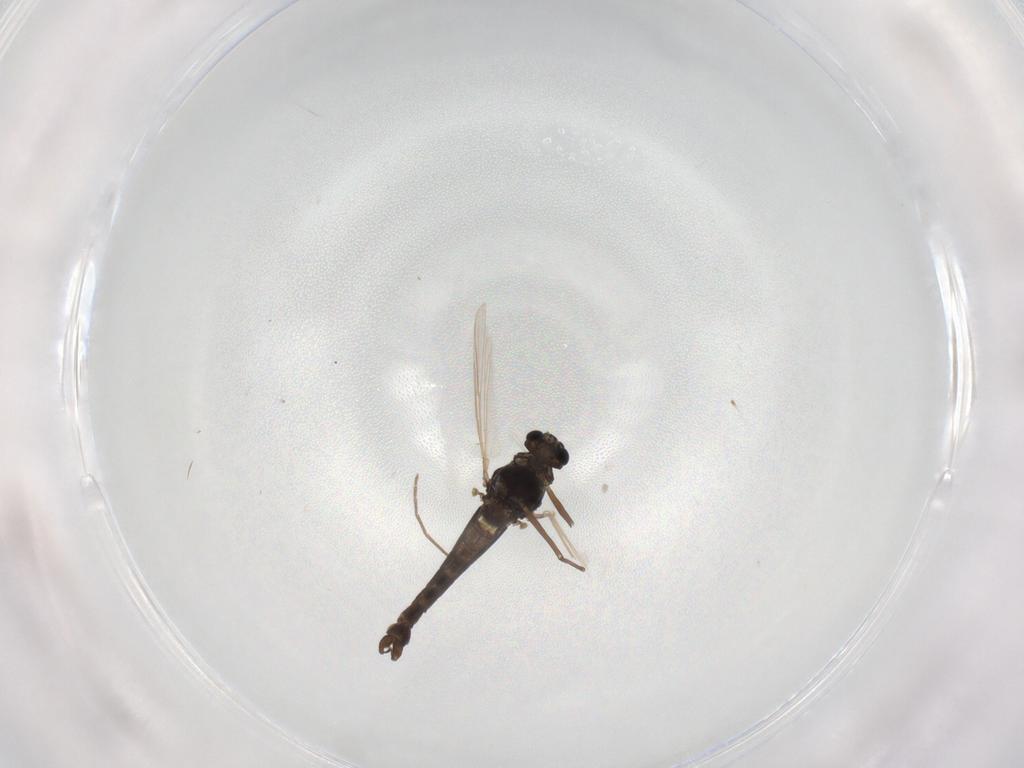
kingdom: Animalia
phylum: Arthropoda
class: Insecta
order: Diptera
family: Chironomidae
